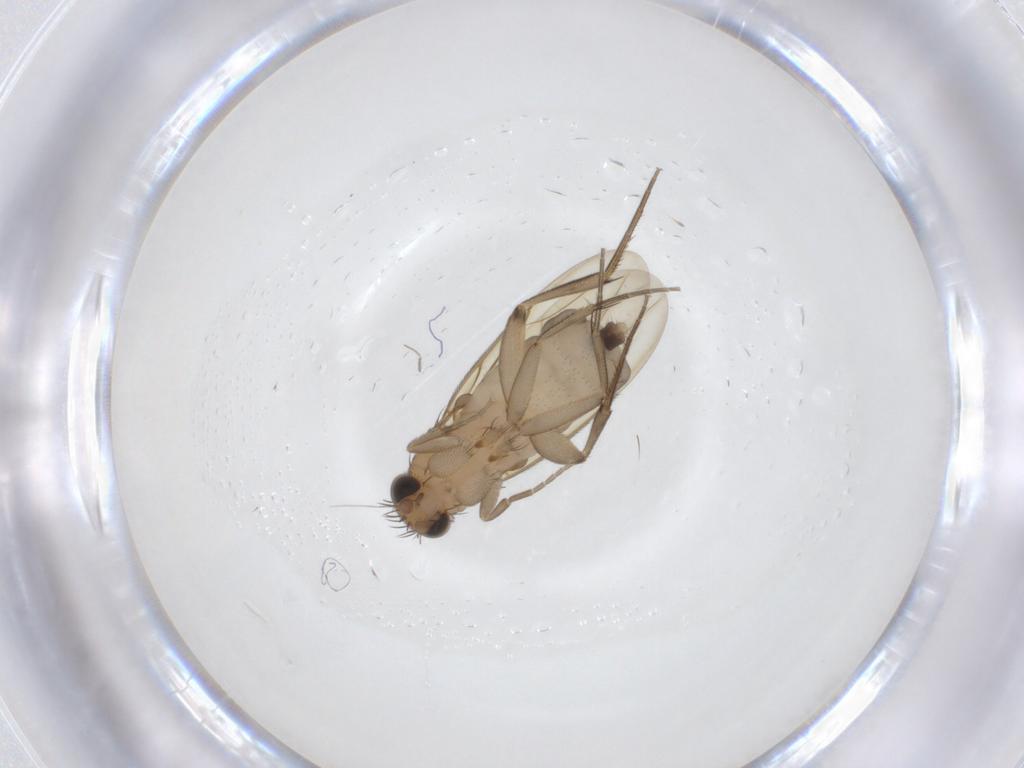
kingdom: Animalia
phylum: Arthropoda
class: Insecta
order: Diptera
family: Phoridae
